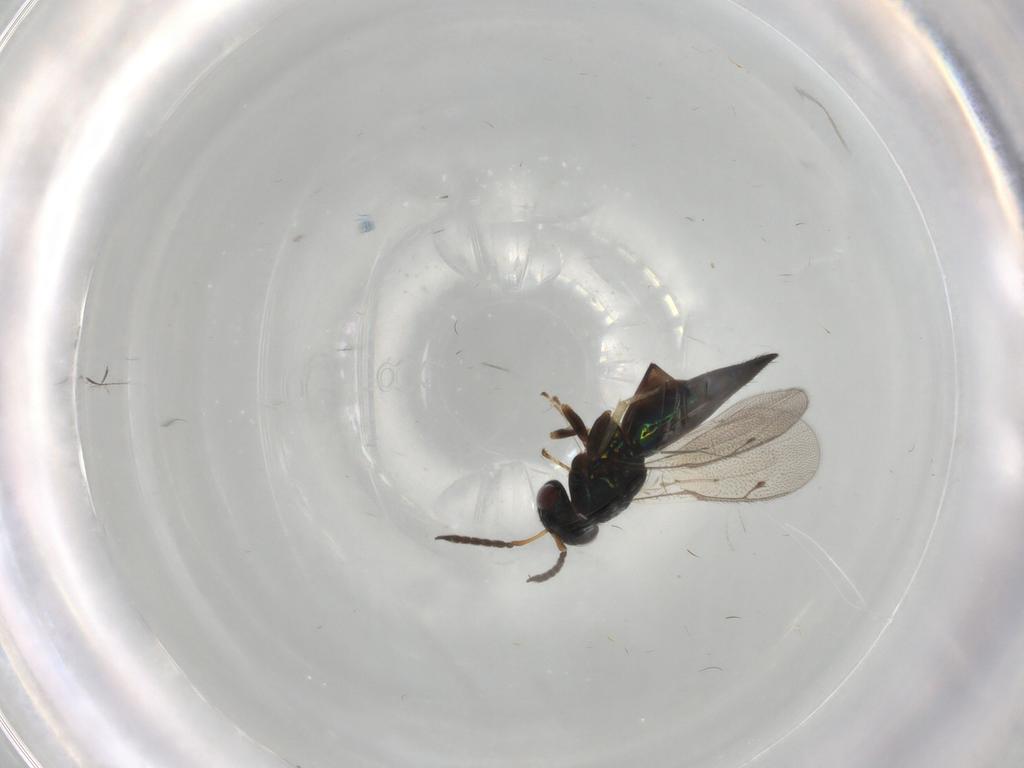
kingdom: Animalia
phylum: Arthropoda
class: Insecta
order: Hymenoptera
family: Pteromalidae
